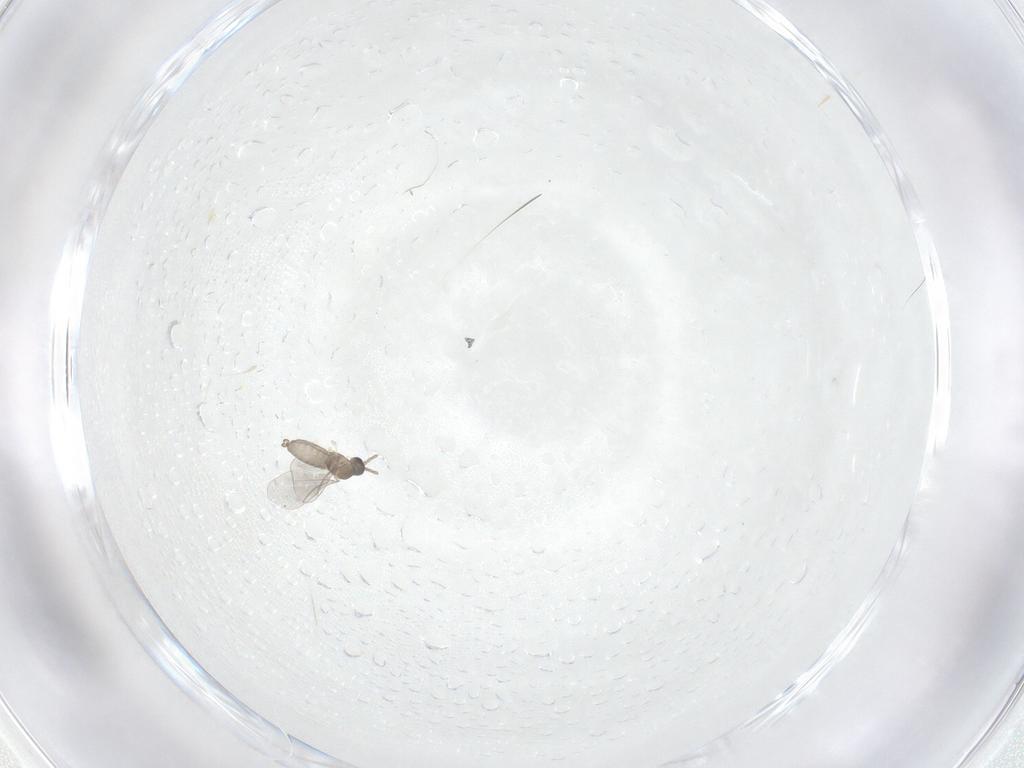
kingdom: Animalia
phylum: Arthropoda
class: Insecta
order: Diptera
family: Cecidomyiidae
